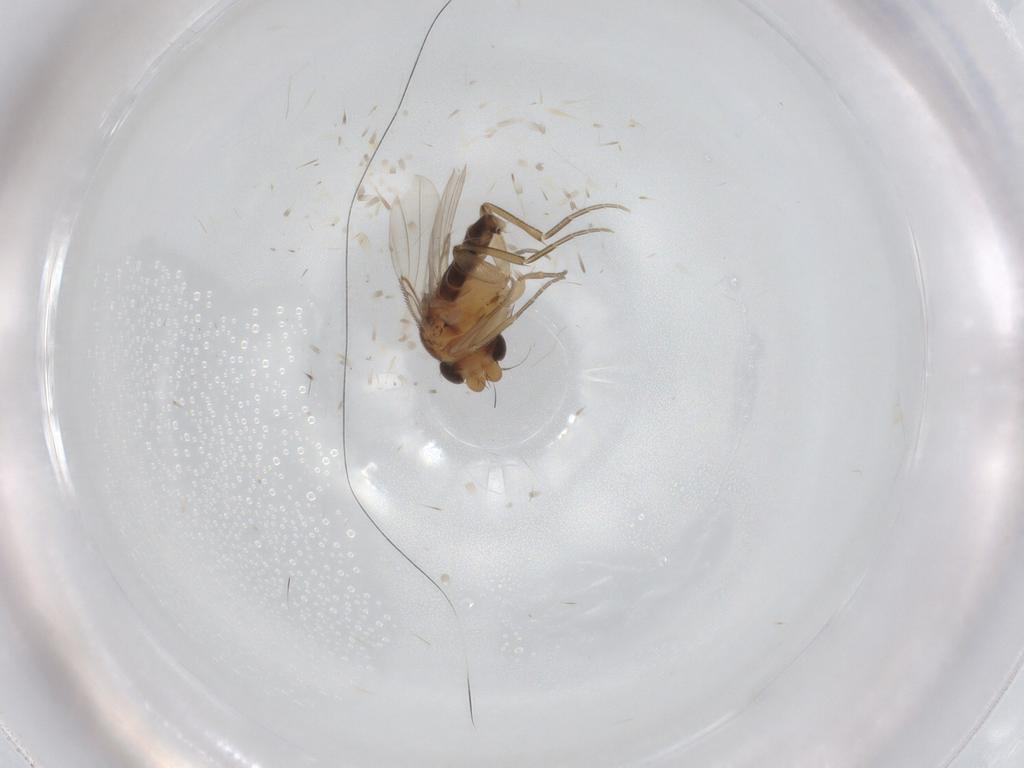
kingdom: Animalia
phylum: Arthropoda
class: Insecta
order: Diptera
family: Phoridae
